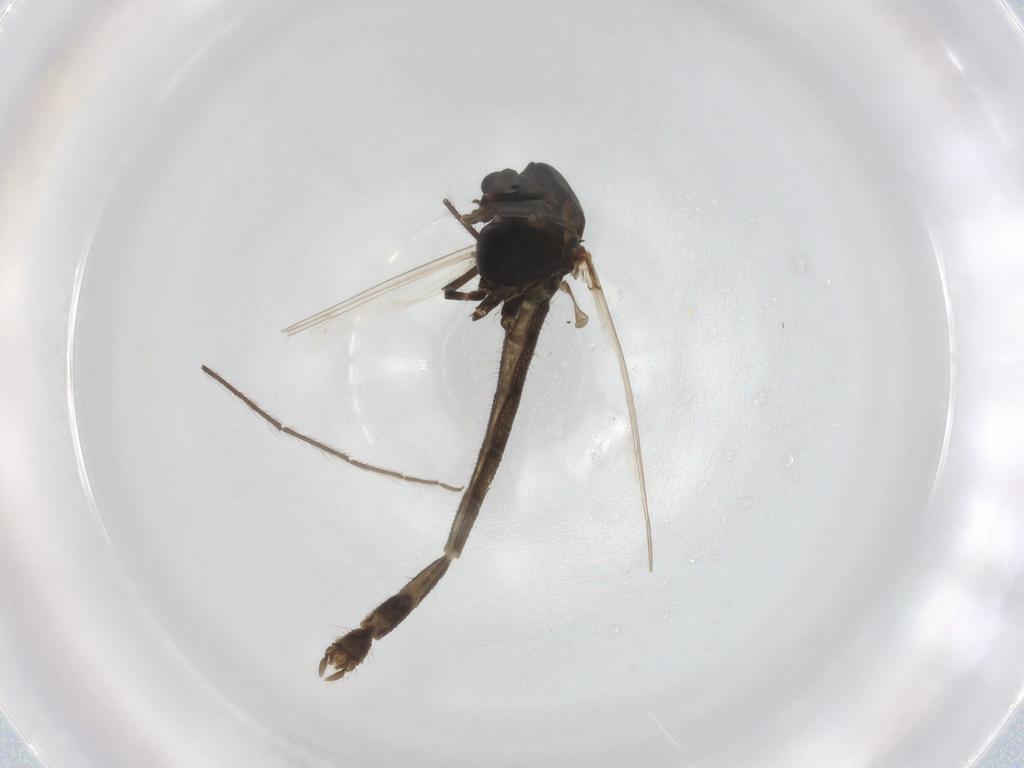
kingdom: Animalia
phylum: Arthropoda
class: Insecta
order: Diptera
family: Chironomidae
